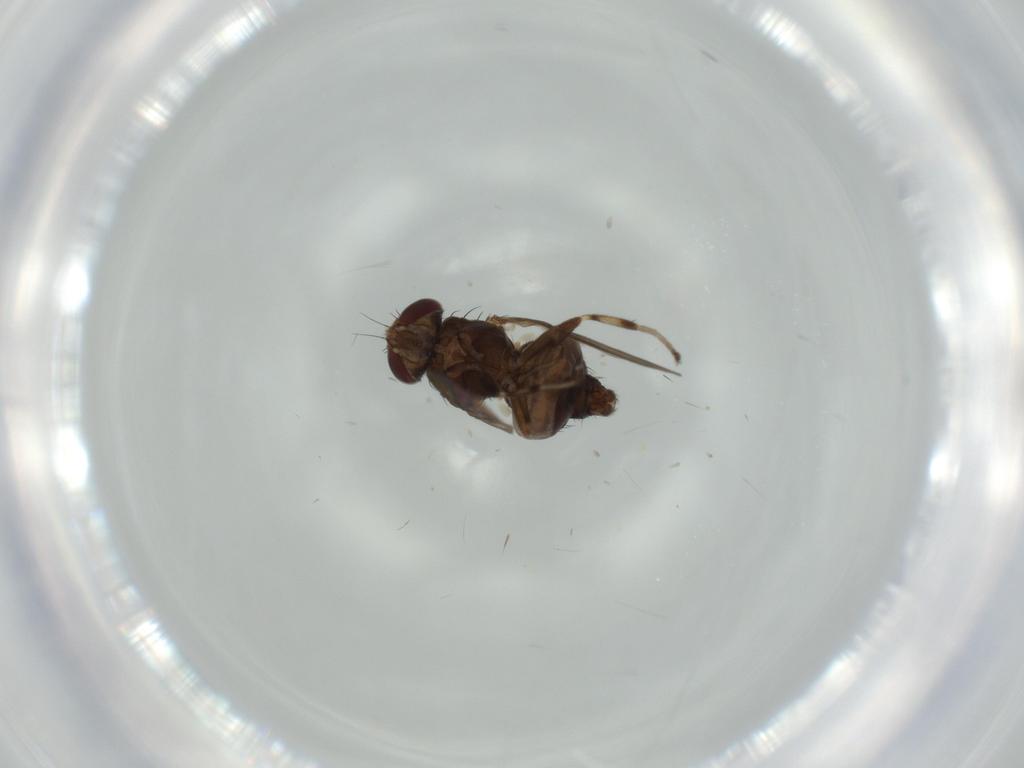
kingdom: Animalia
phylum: Arthropoda
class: Insecta
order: Diptera
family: Heleomyzidae
